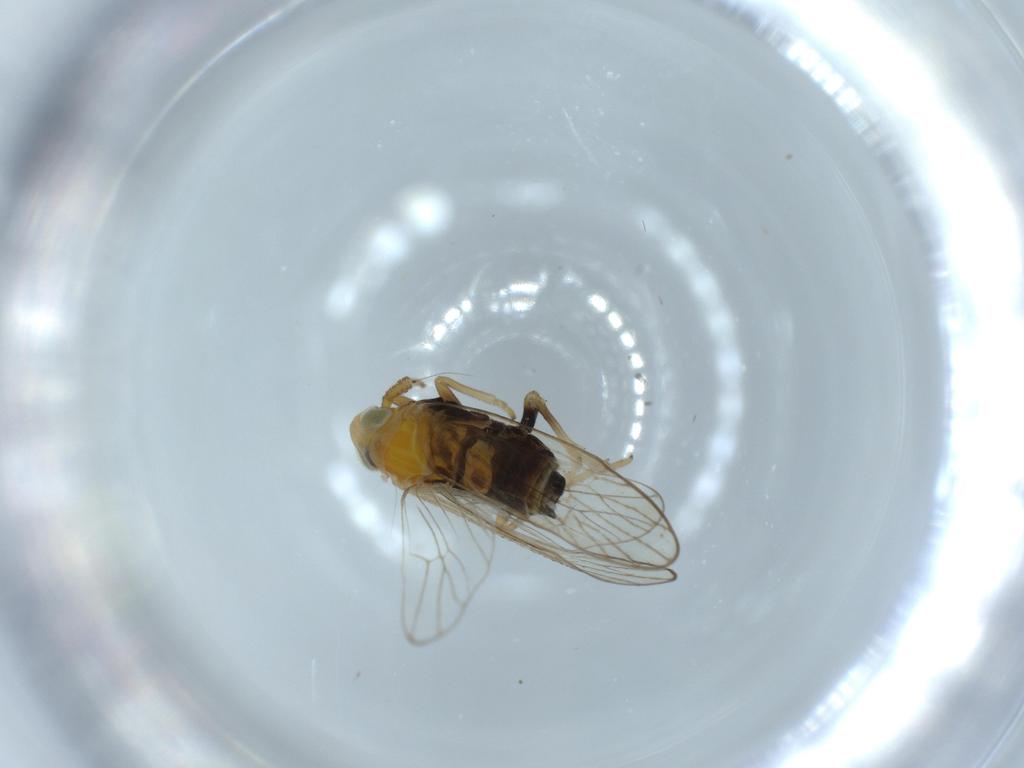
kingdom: Animalia
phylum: Arthropoda
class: Insecta
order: Hemiptera
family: Delphacidae
